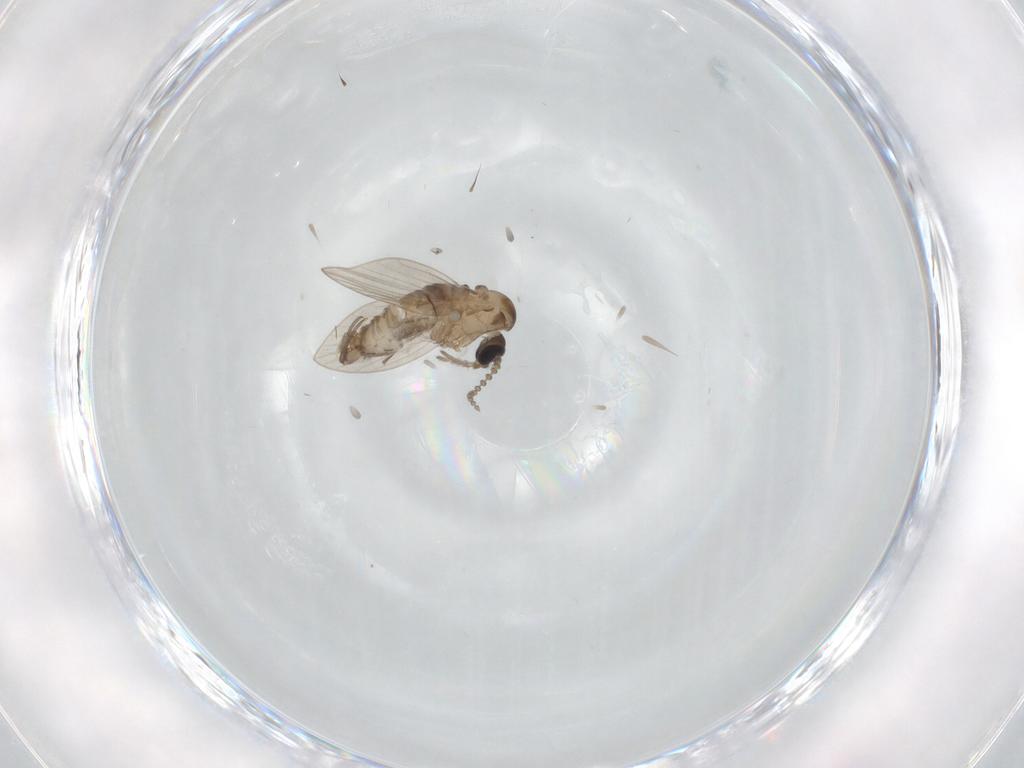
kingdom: Animalia
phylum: Arthropoda
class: Insecta
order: Diptera
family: Psychodidae
